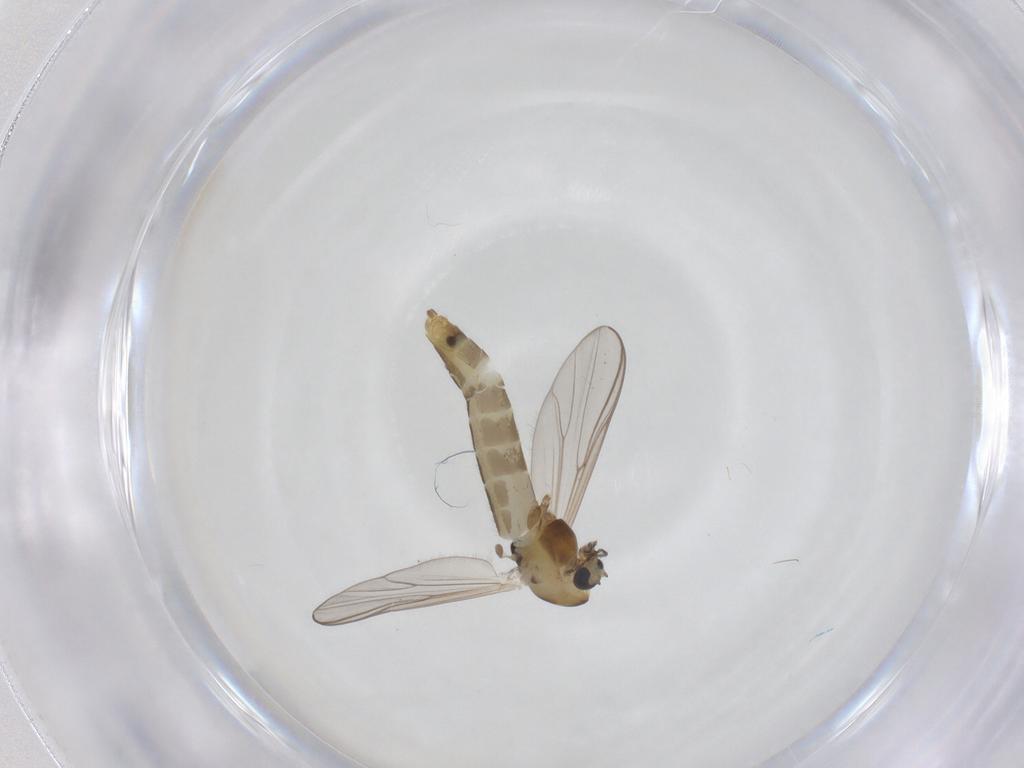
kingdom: Animalia
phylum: Arthropoda
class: Insecta
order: Diptera
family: Chironomidae
